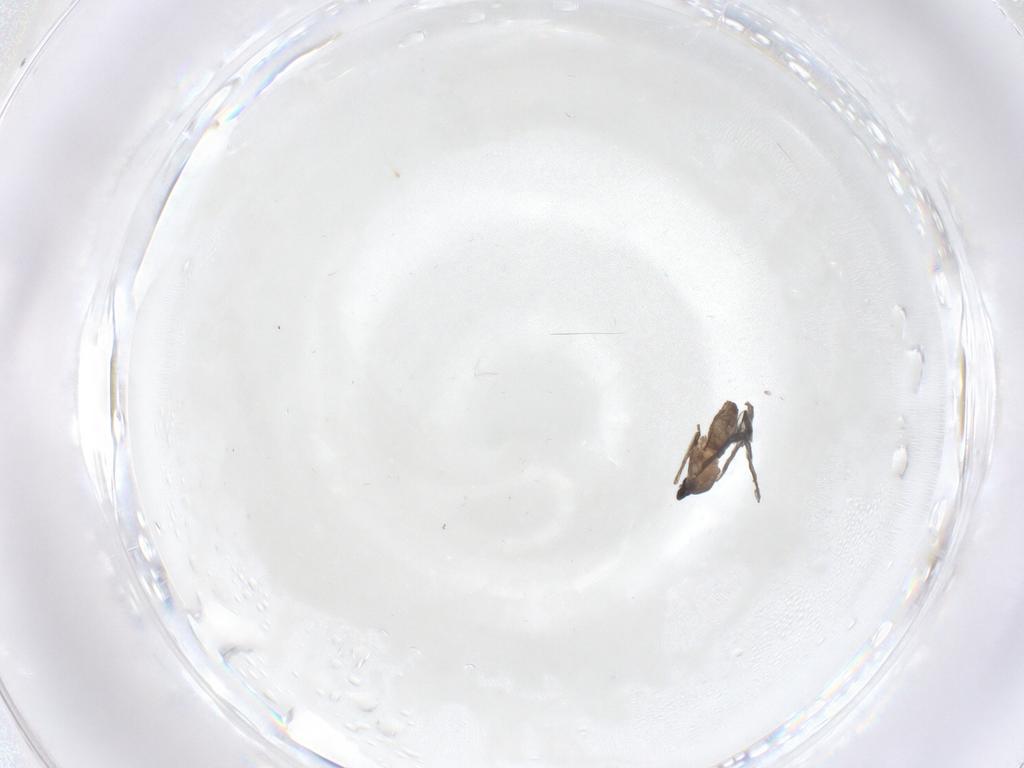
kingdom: Animalia
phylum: Arthropoda
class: Insecta
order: Diptera
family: Cecidomyiidae
